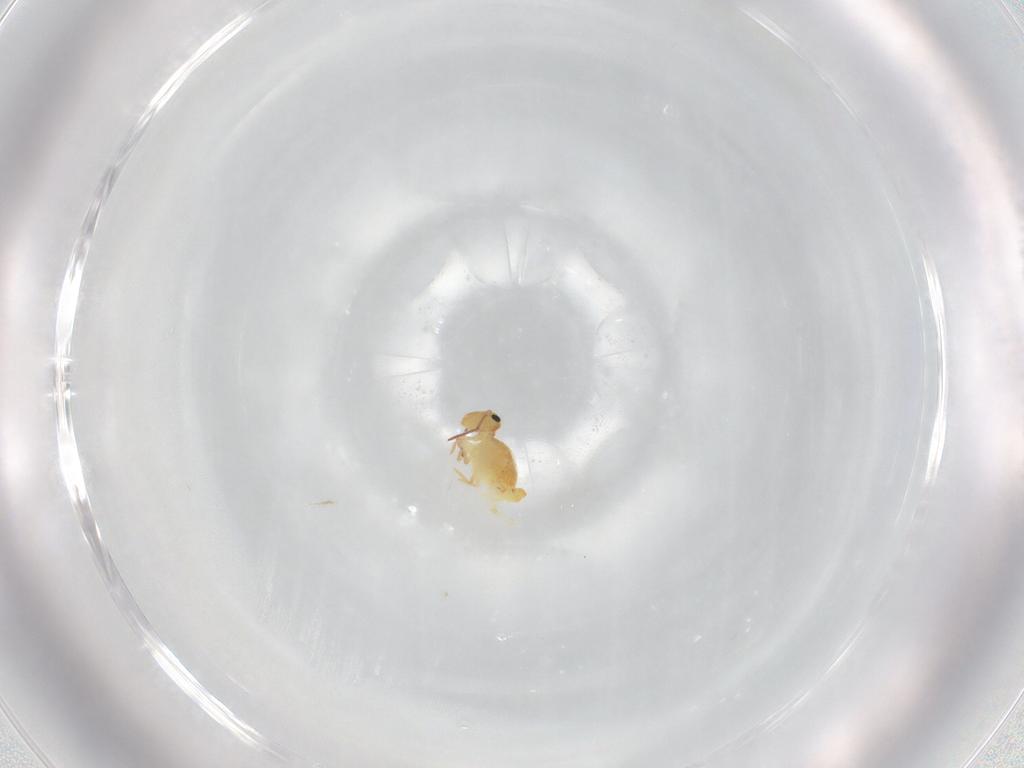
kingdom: Animalia
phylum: Arthropoda
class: Collembola
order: Symphypleona
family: Bourletiellidae
